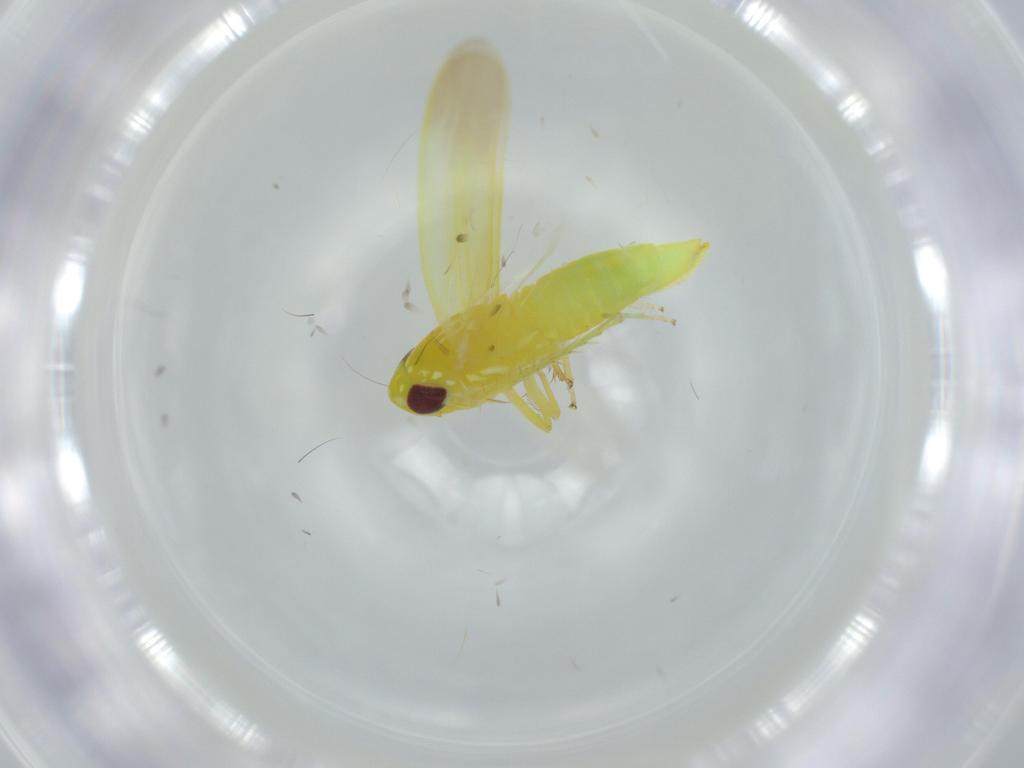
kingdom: Animalia
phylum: Arthropoda
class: Insecta
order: Hemiptera
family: Cicadellidae
